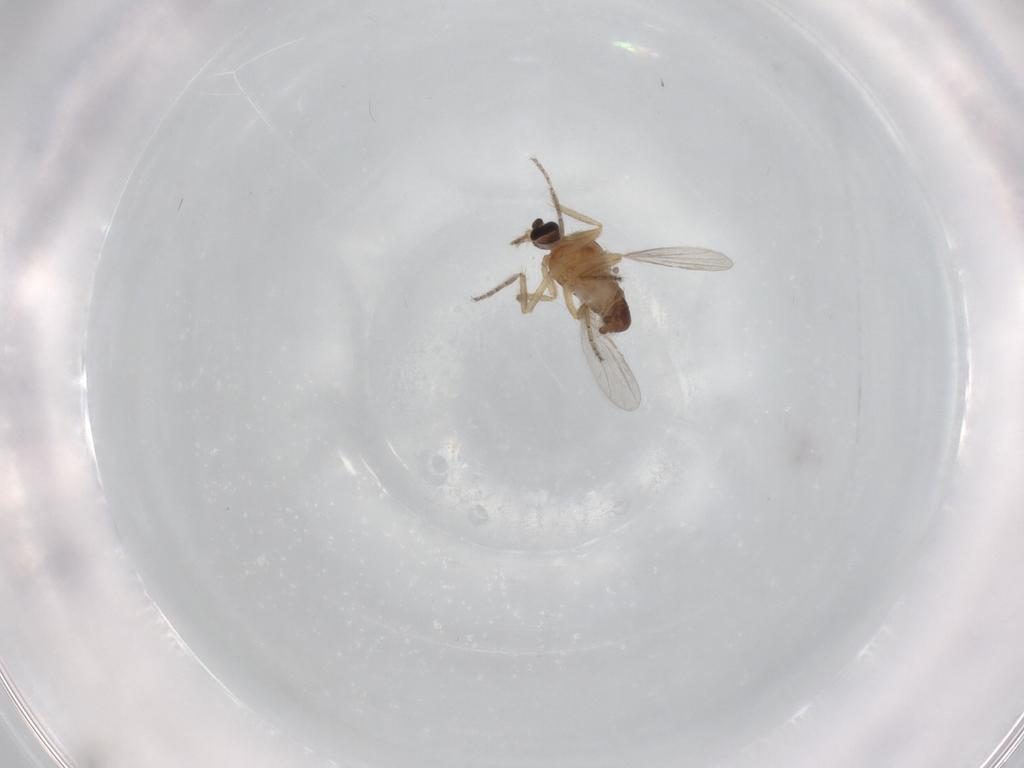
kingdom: Animalia
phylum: Arthropoda
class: Insecta
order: Diptera
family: Ceratopogonidae
